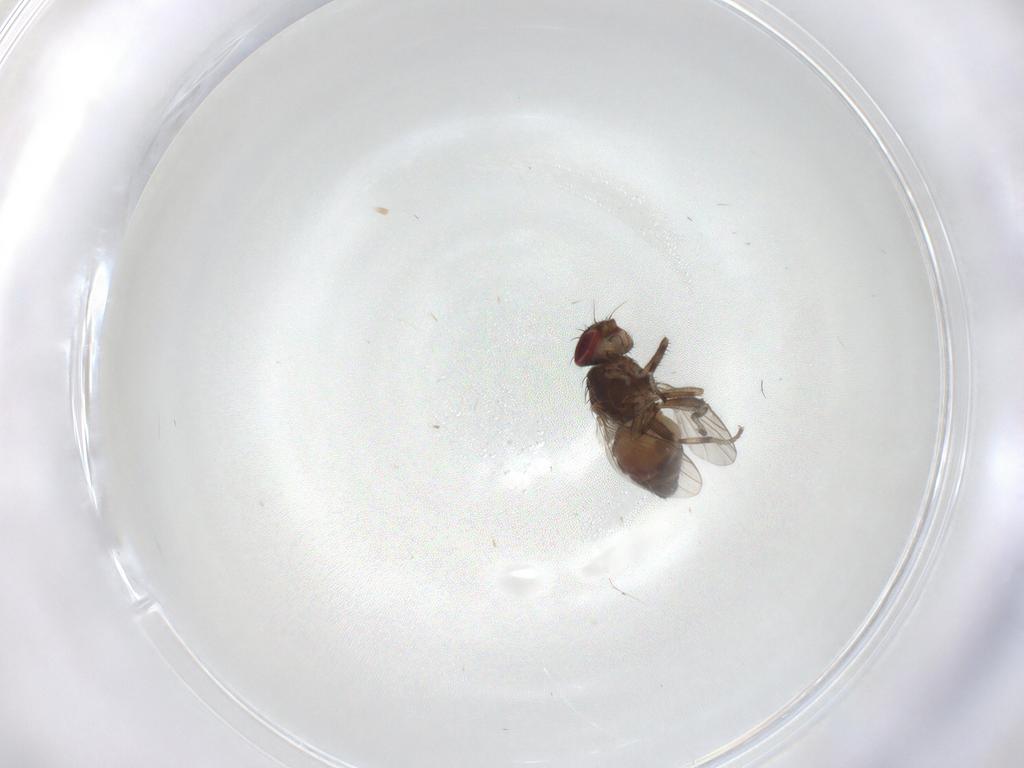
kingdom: Animalia
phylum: Arthropoda
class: Insecta
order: Diptera
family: Heleomyzidae
